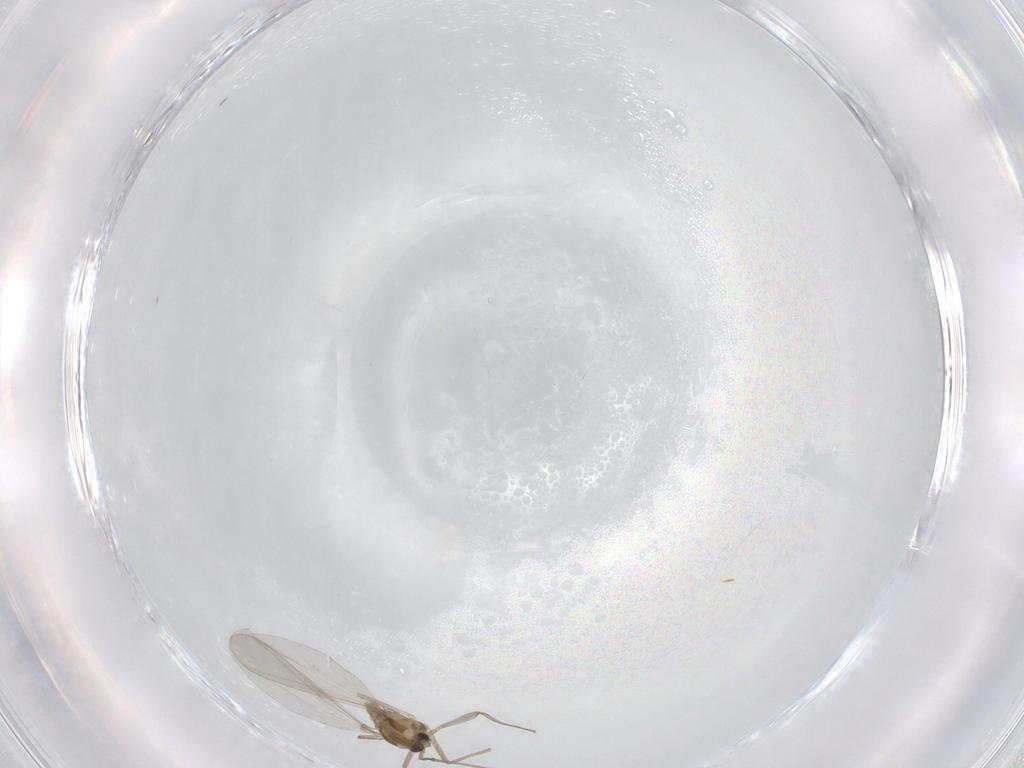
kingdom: Animalia
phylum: Arthropoda
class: Insecta
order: Diptera
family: Chironomidae
